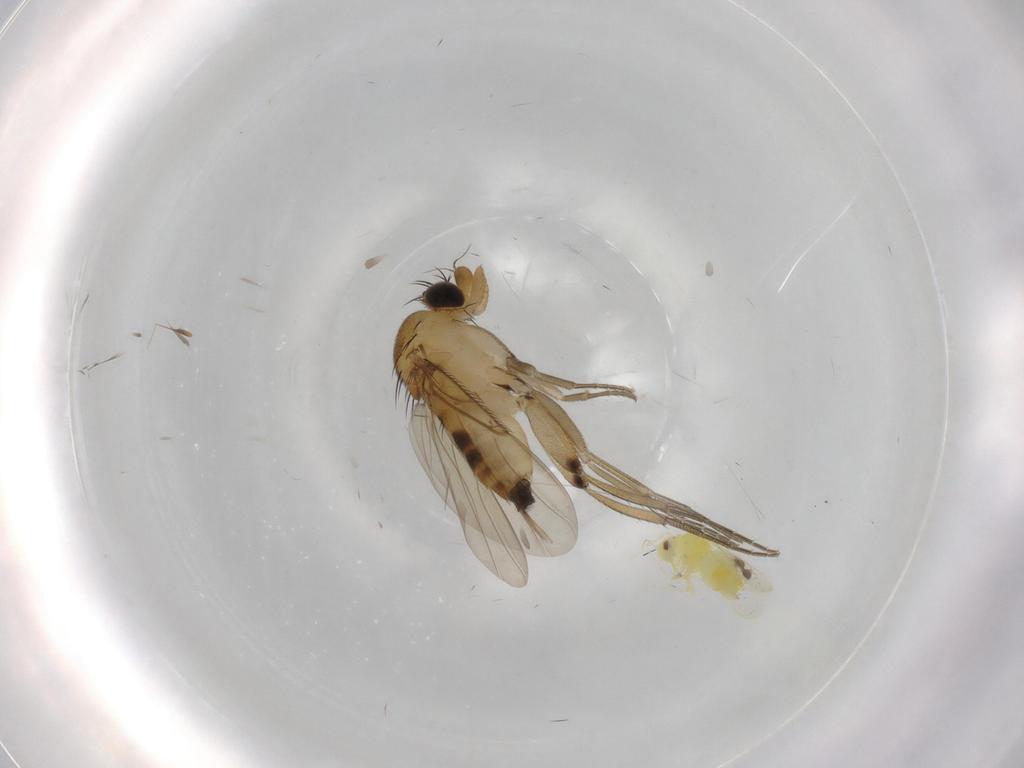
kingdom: Animalia
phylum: Arthropoda
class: Insecta
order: Diptera
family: Phoridae
